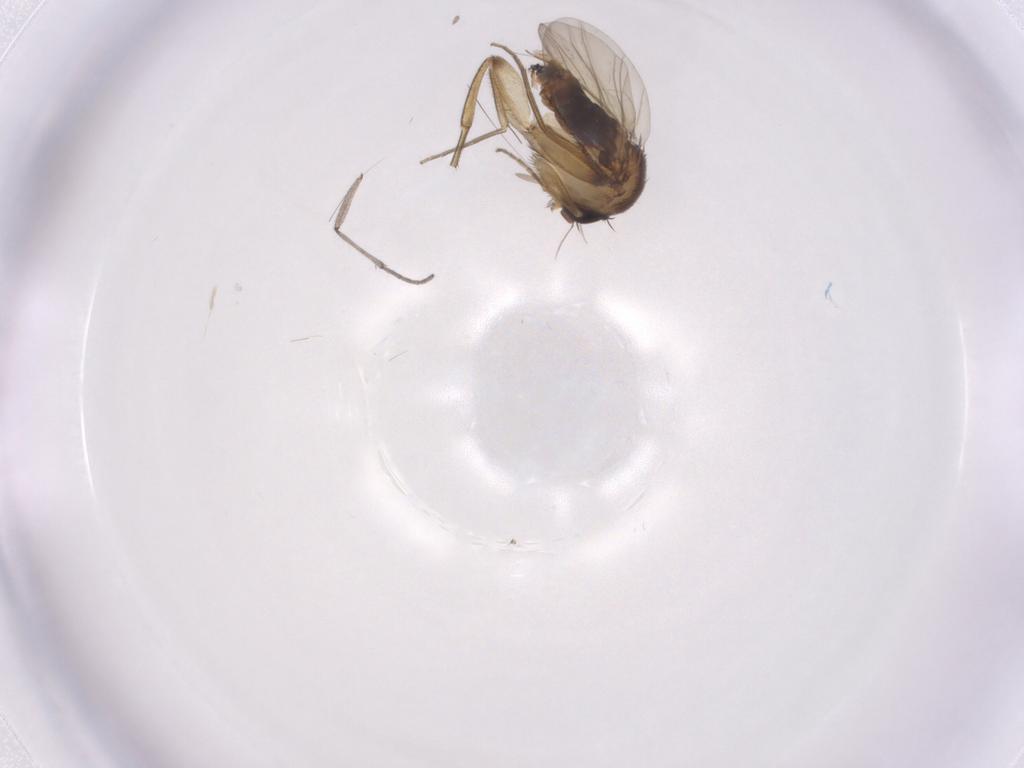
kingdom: Animalia
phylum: Arthropoda
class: Insecta
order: Diptera
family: Phoridae
